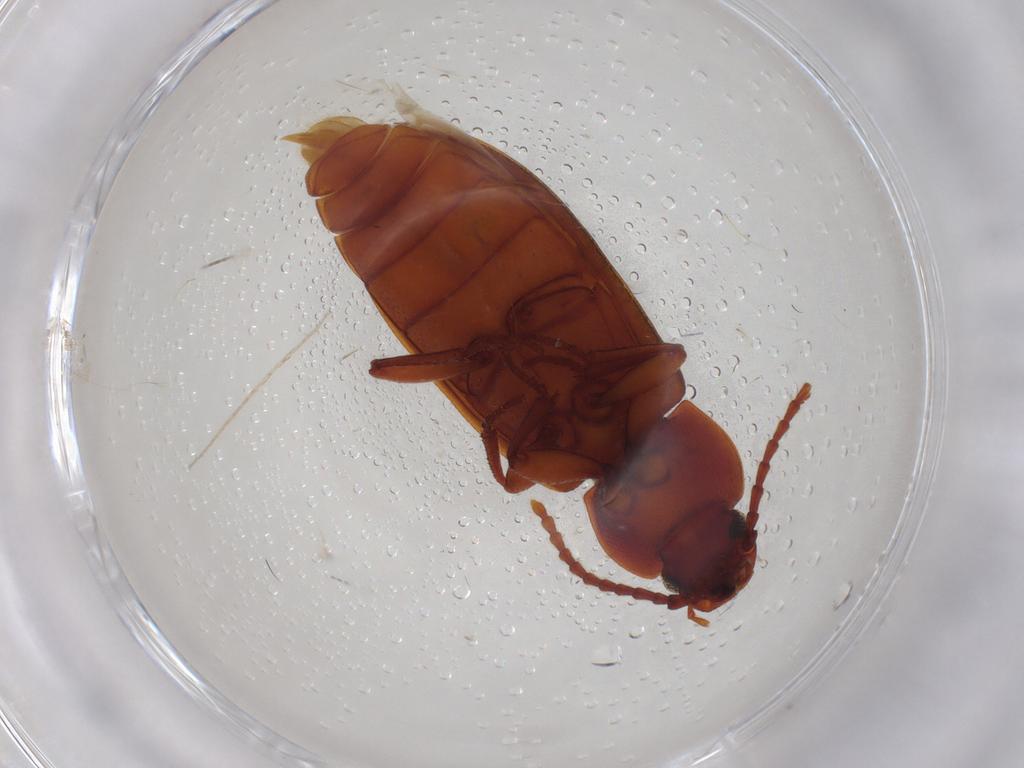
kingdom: Animalia
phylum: Arthropoda
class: Insecta
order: Coleoptera
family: Tenebrionidae
